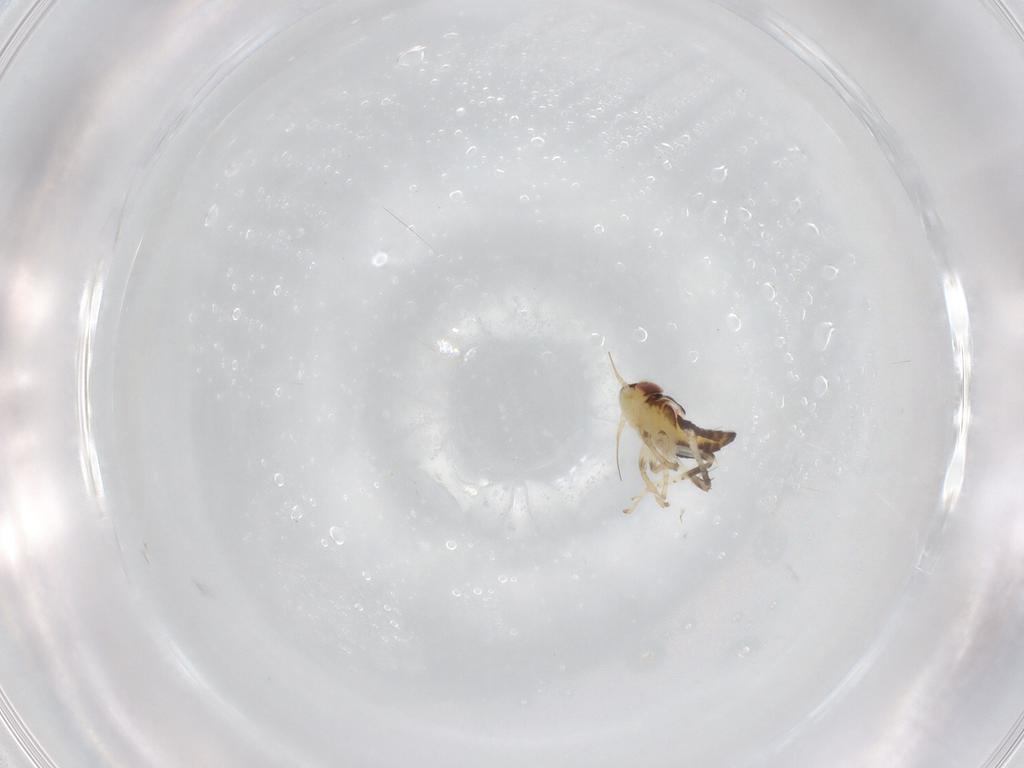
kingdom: Animalia
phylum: Arthropoda
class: Insecta
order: Hemiptera
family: Cicadellidae
